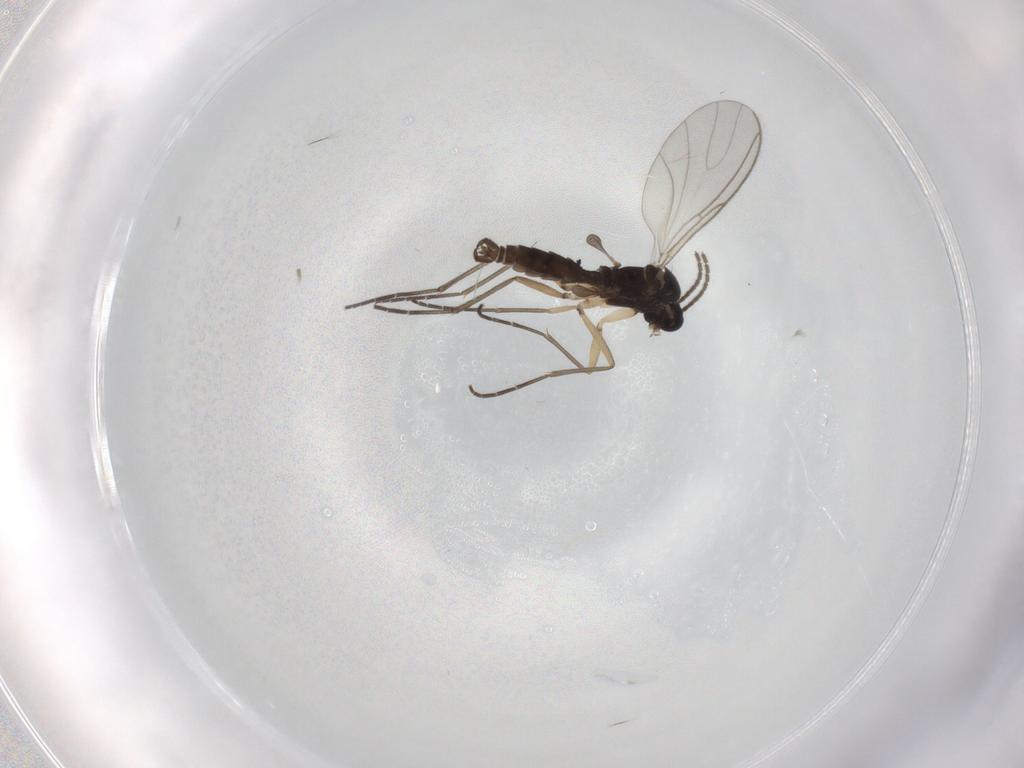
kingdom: Animalia
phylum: Arthropoda
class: Insecta
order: Diptera
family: Sciaridae
